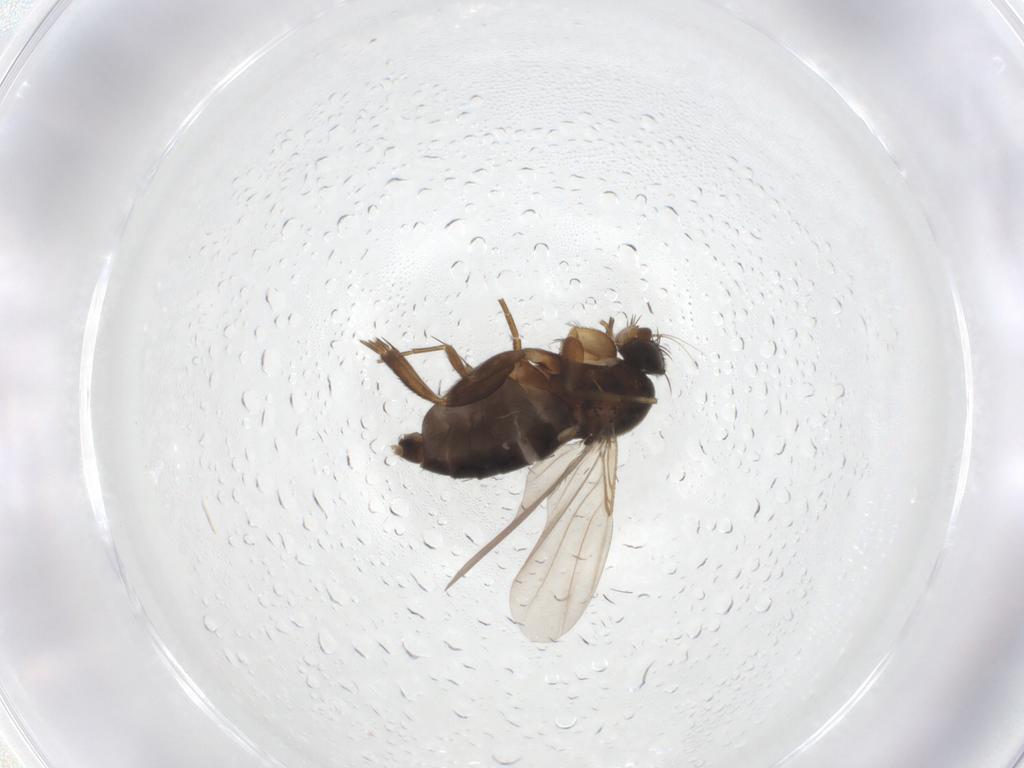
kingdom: Animalia
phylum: Arthropoda
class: Insecta
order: Diptera
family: Phoridae
